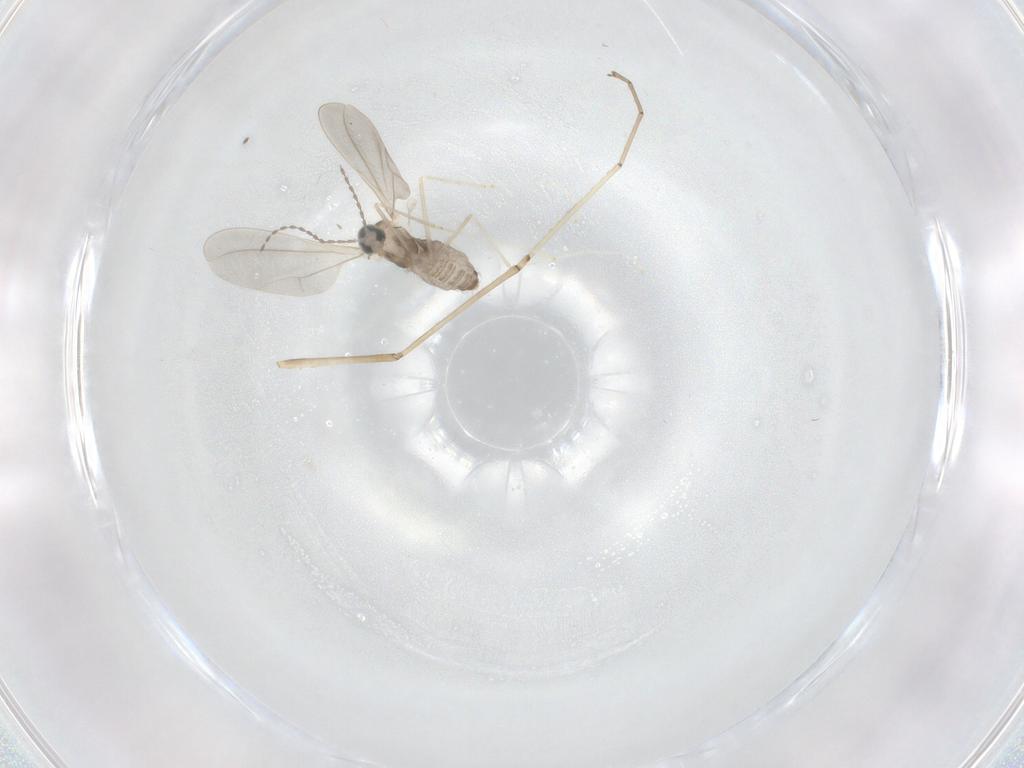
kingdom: Animalia
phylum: Arthropoda
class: Insecta
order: Diptera
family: Cecidomyiidae
